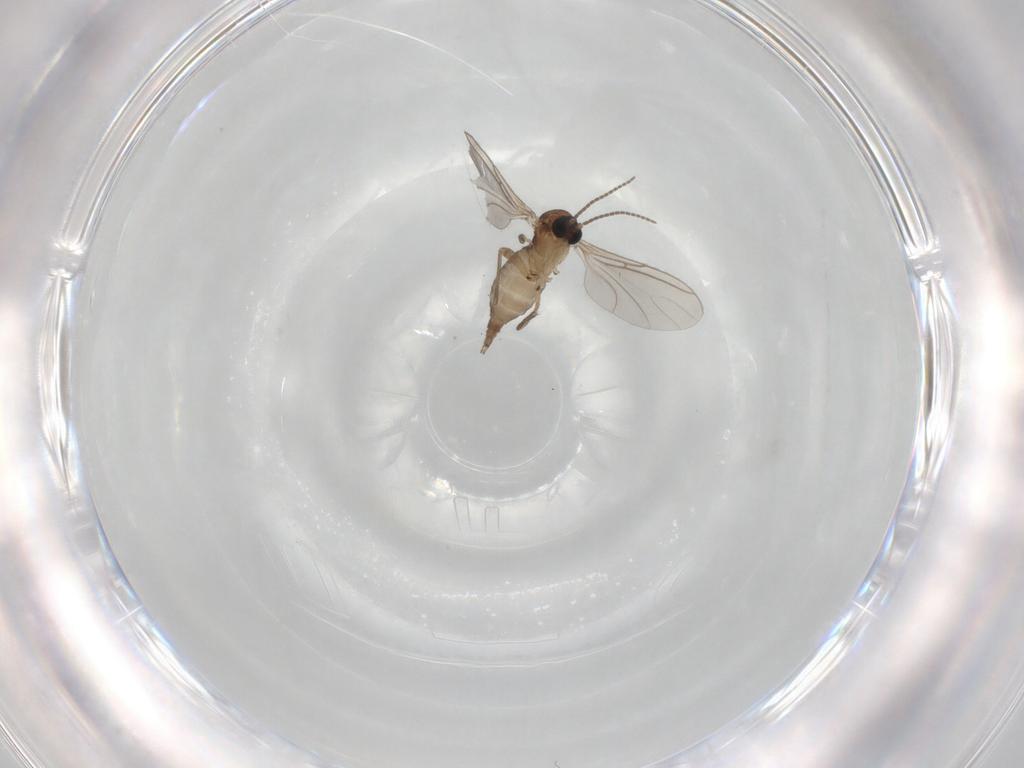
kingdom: Animalia
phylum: Arthropoda
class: Insecta
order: Diptera
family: Sciaridae
